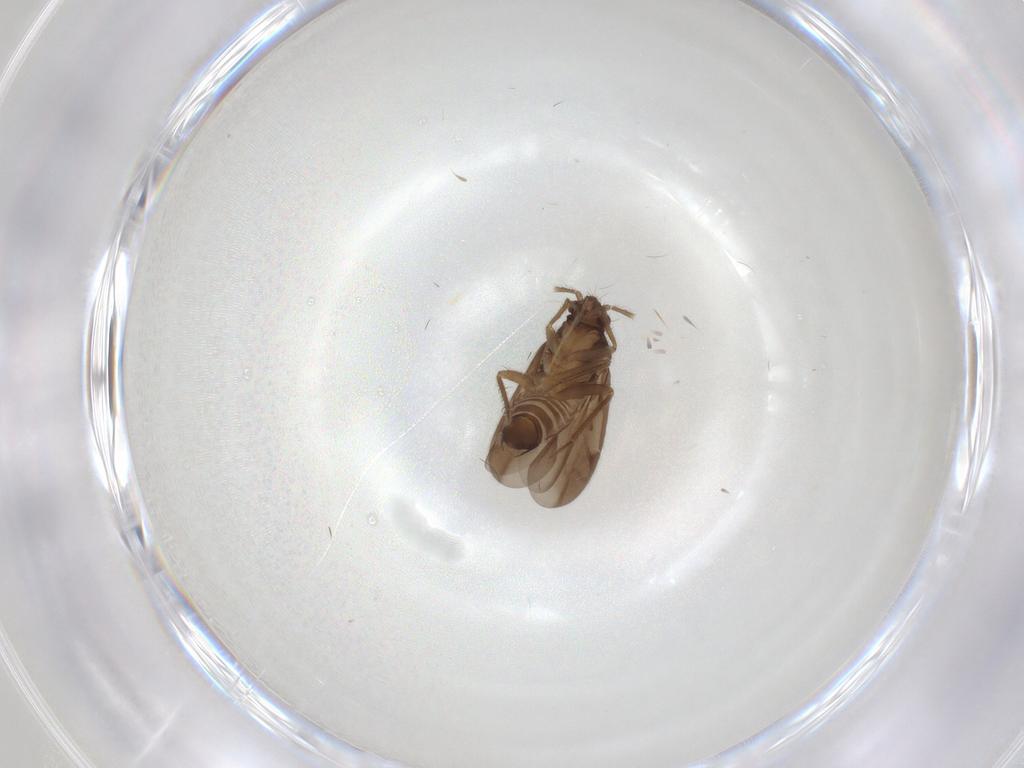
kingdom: Animalia
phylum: Arthropoda
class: Insecta
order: Hemiptera
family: Ceratocombidae
